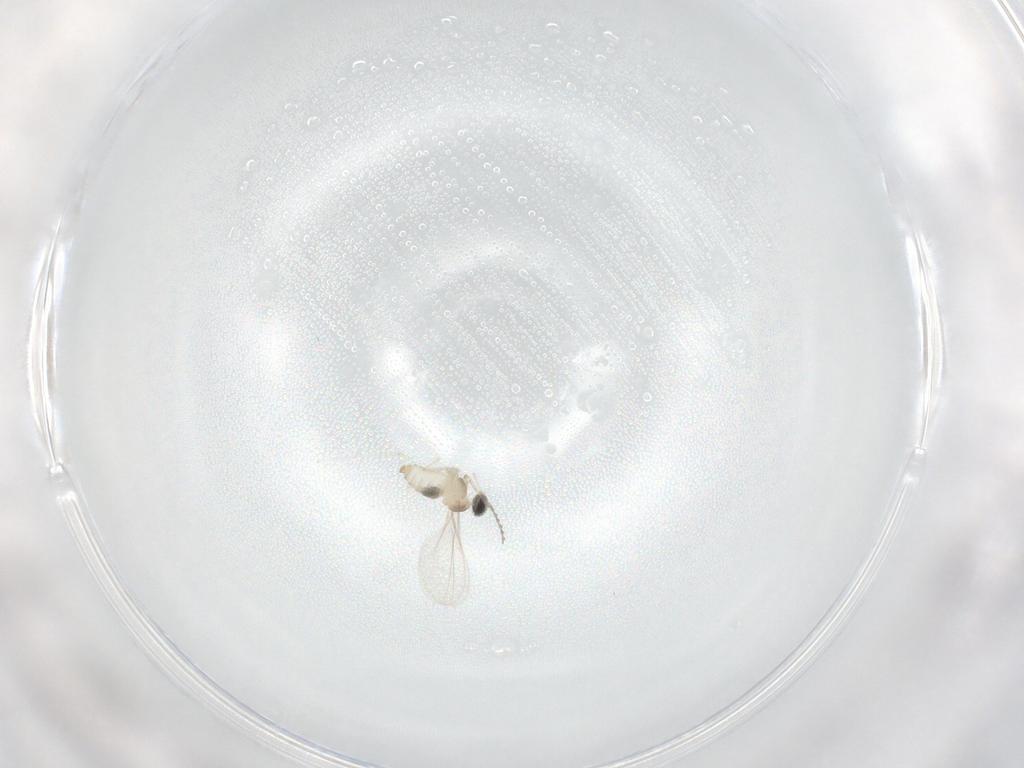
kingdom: Animalia
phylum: Arthropoda
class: Insecta
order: Diptera
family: Cecidomyiidae
